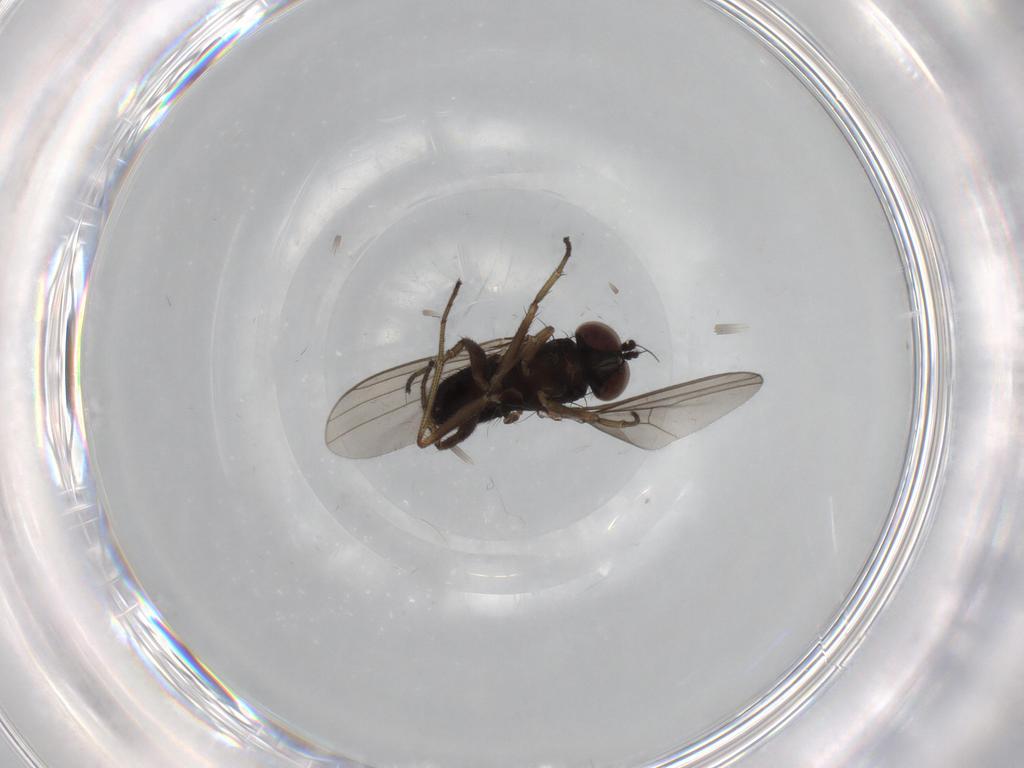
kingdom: Animalia
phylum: Arthropoda
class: Insecta
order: Diptera
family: Dolichopodidae
